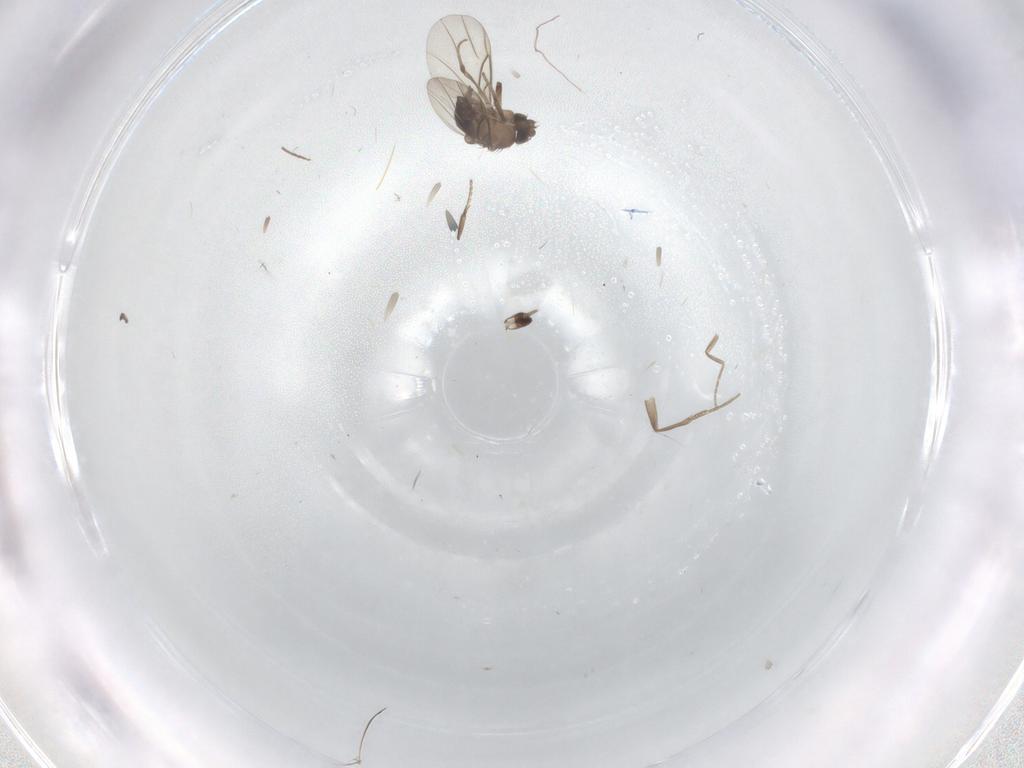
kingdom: Animalia
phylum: Arthropoda
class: Insecta
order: Diptera
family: Phoridae
